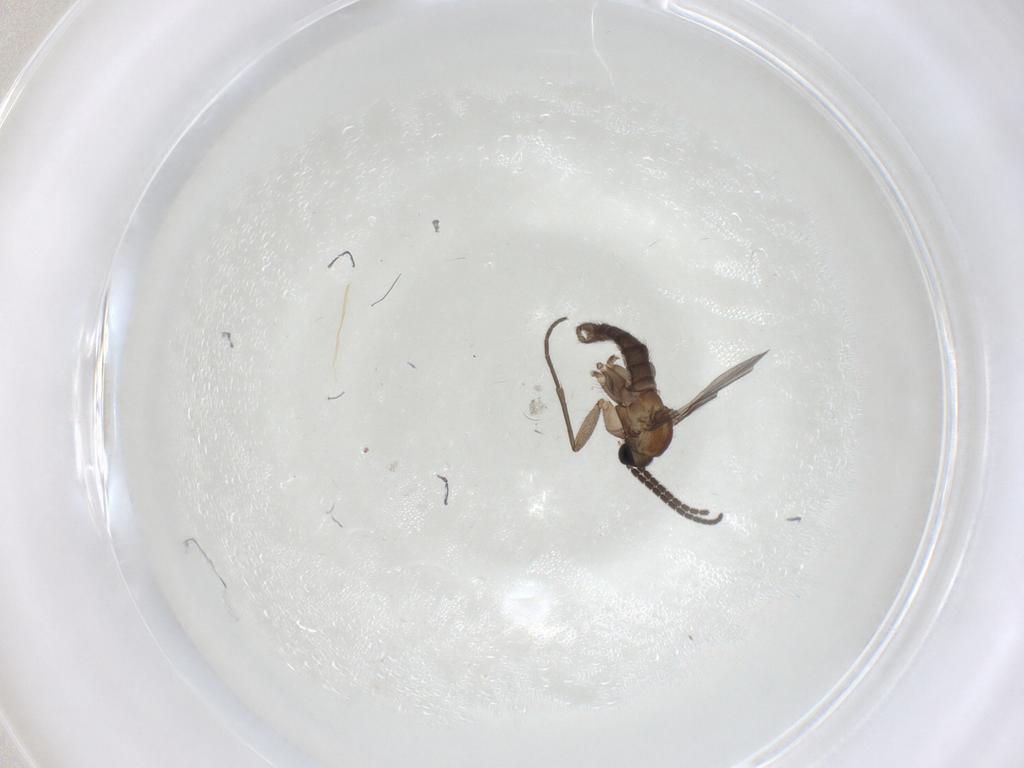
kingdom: Animalia
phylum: Arthropoda
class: Insecta
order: Diptera
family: Sciaridae
